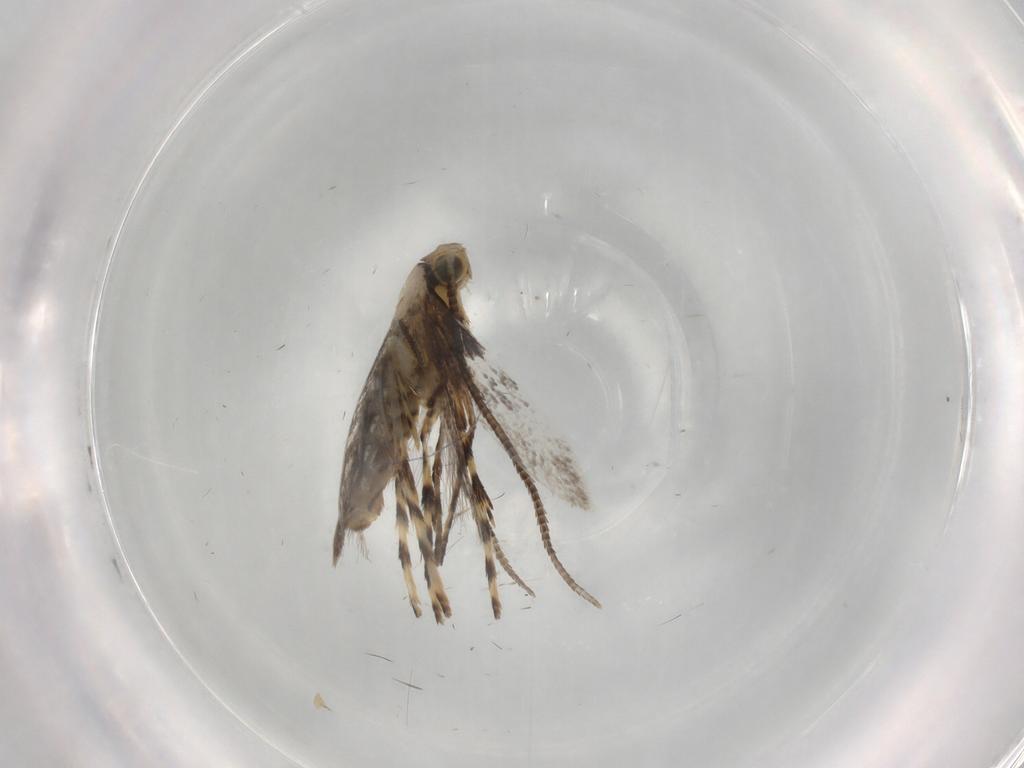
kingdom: Animalia
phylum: Arthropoda
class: Insecta
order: Lepidoptera
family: Gracillariidae
